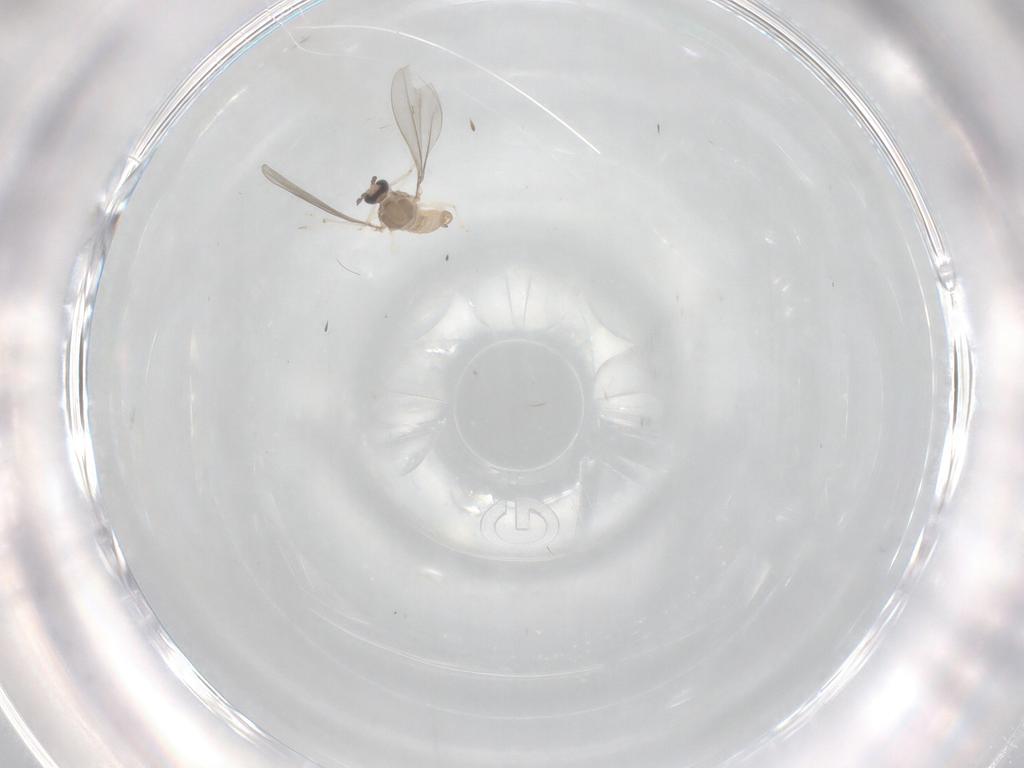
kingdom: Animalia
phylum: Arthropoda
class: Insecta
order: Diptera
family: Cecidomyiidae
